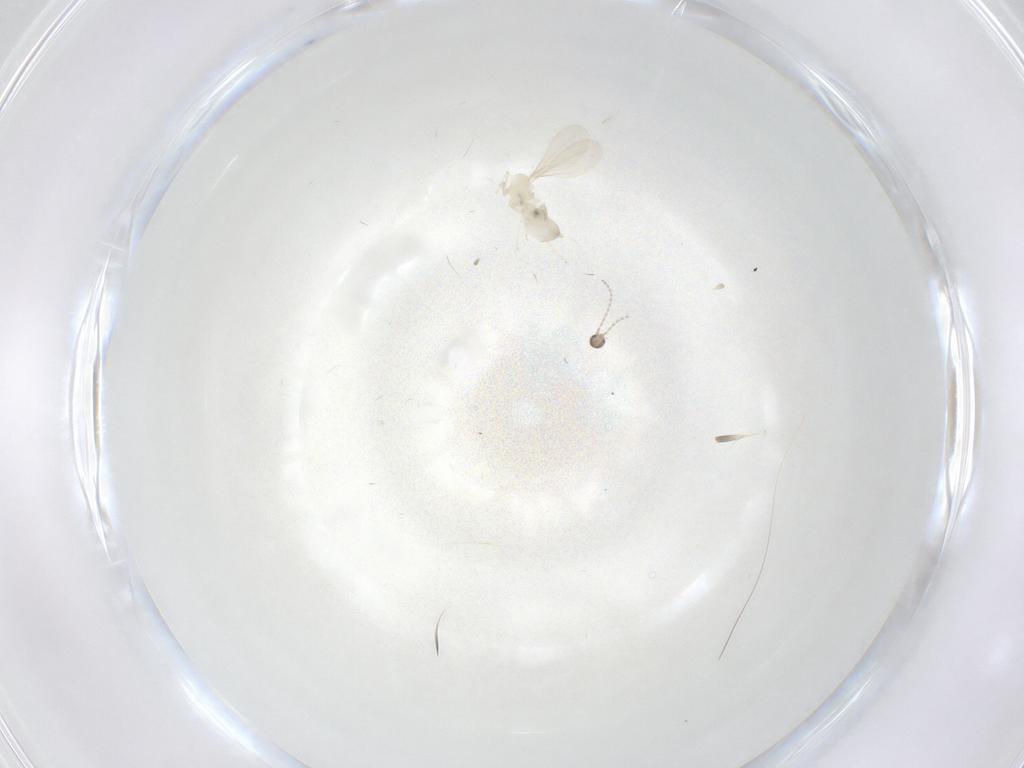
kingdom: Animalia
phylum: Arthropoda
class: Insecta
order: Diptera
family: Cecidomyiidae
